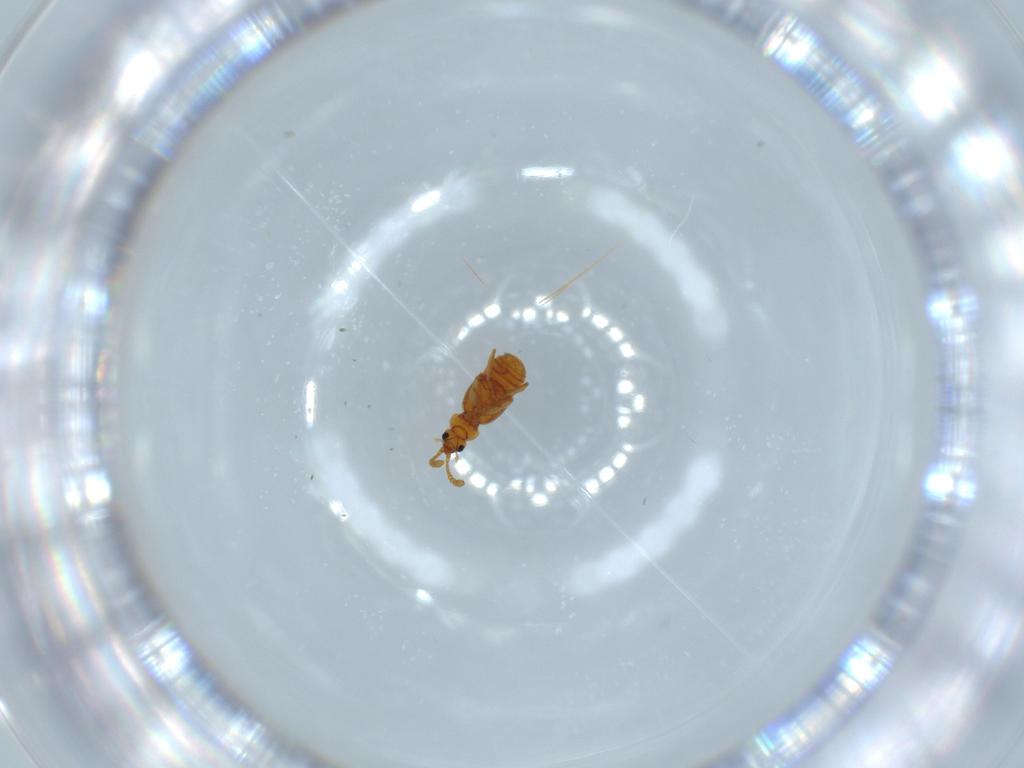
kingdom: Animalia
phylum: Arthropoda
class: Insecta
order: Coleoptera
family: Staphylinidae
